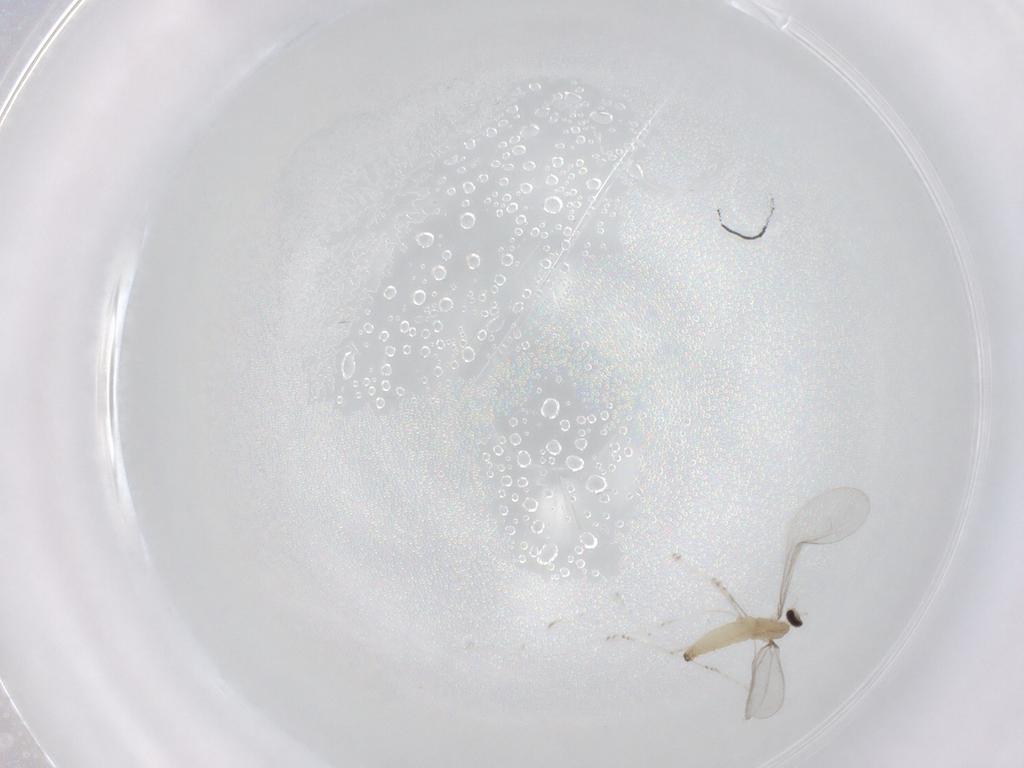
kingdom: Animalia
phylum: Arthropoda
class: Insecta
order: Diptera
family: Cecidomyiidae
